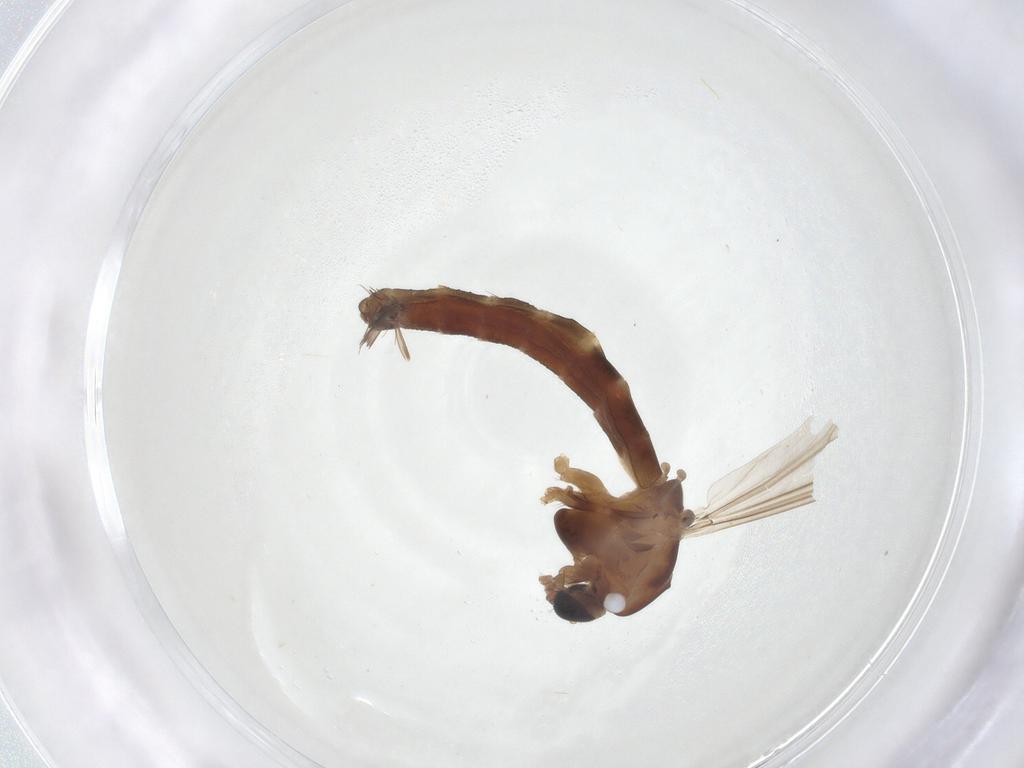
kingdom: Animalia
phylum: Arthropoda
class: Insecta
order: Diptera
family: Chironomidae
